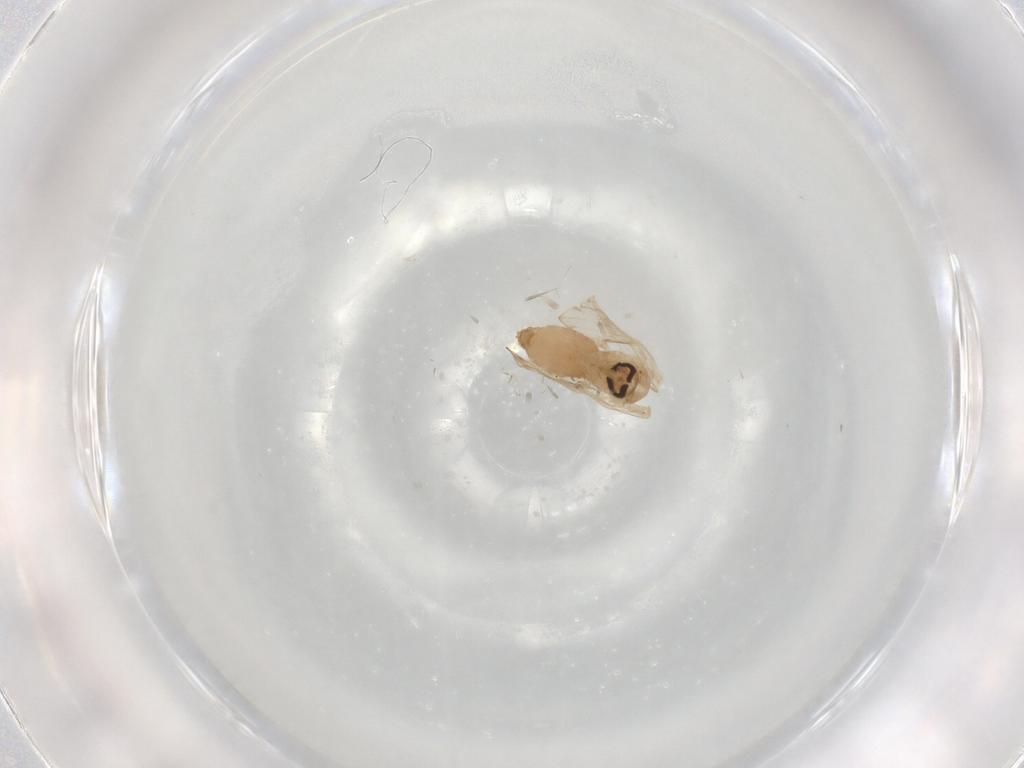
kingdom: Animalia
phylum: Arthropoda
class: Insecta
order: Diptera
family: Psychodidae
